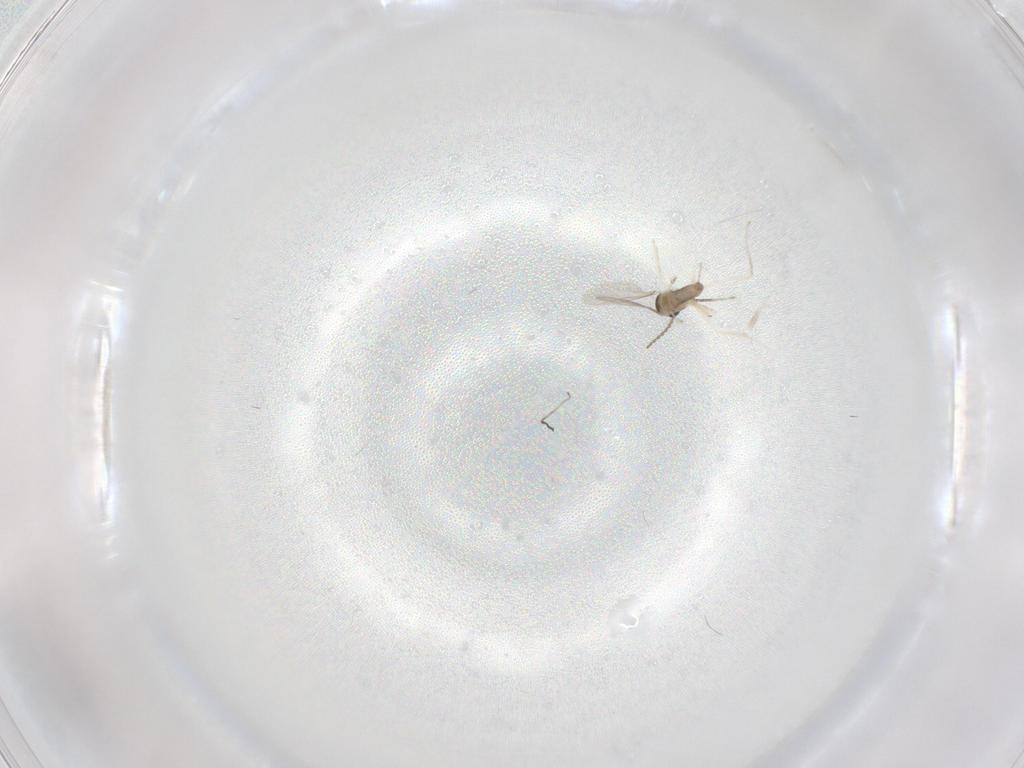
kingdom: Animalia
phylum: Arthropoda
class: Insecta
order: Diptera
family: Cecidomyiidae
